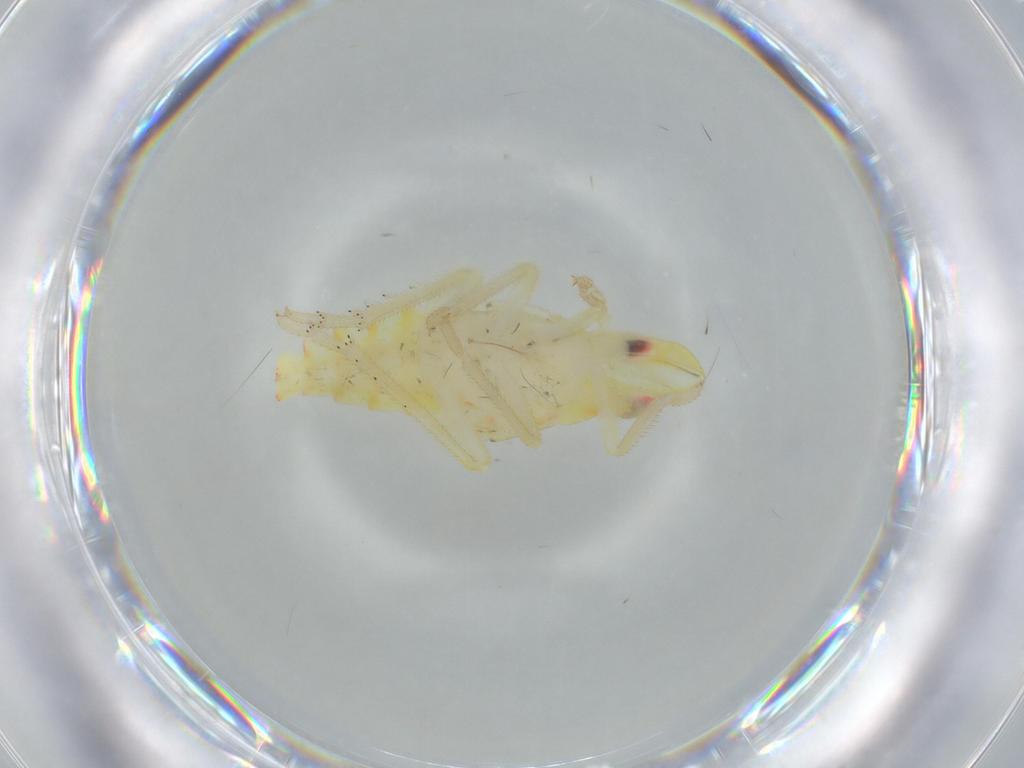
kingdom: Animalia
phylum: Arthropoda
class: Insecta
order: Hemiptera
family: Tropiduchidae
